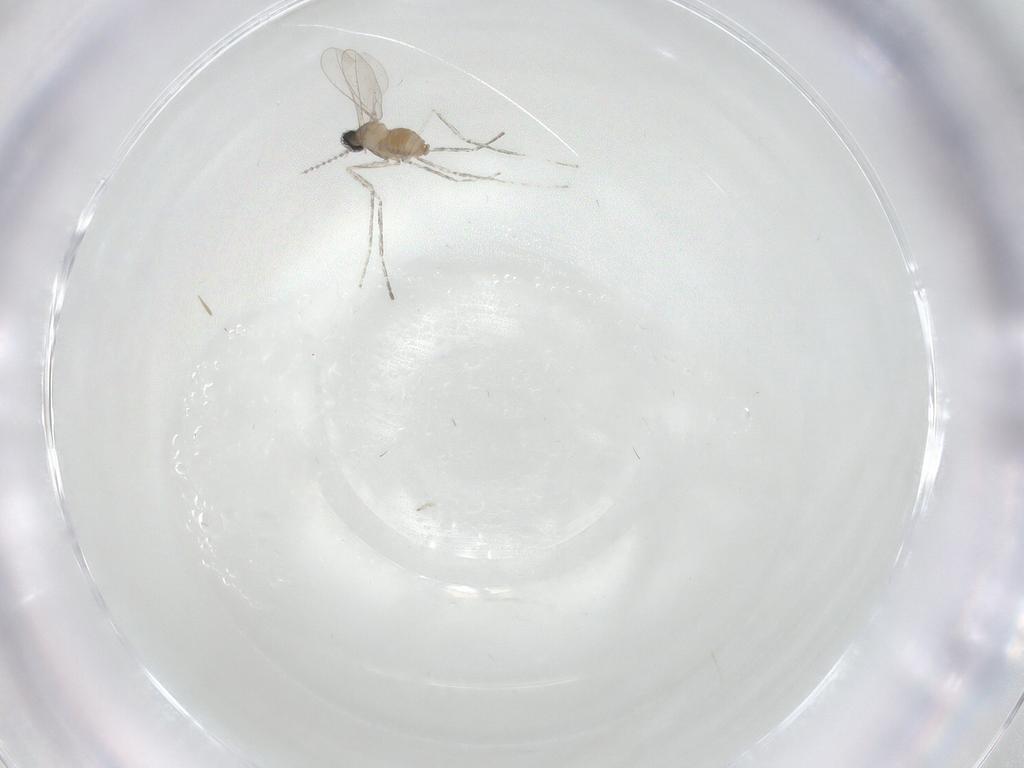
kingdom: Animalia
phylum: Arthropoda
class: Insecta
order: Diptera
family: Cecidomyiidae
